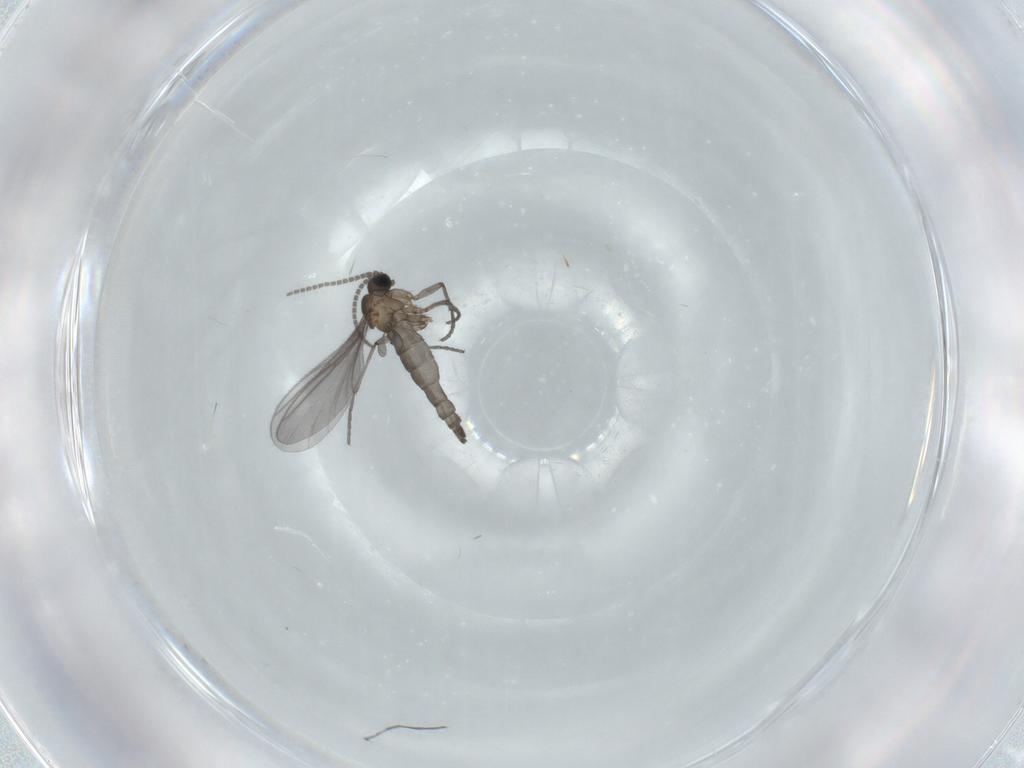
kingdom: Animalia
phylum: Arthropoda
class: Insecta
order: Diptera
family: Sciaridae
